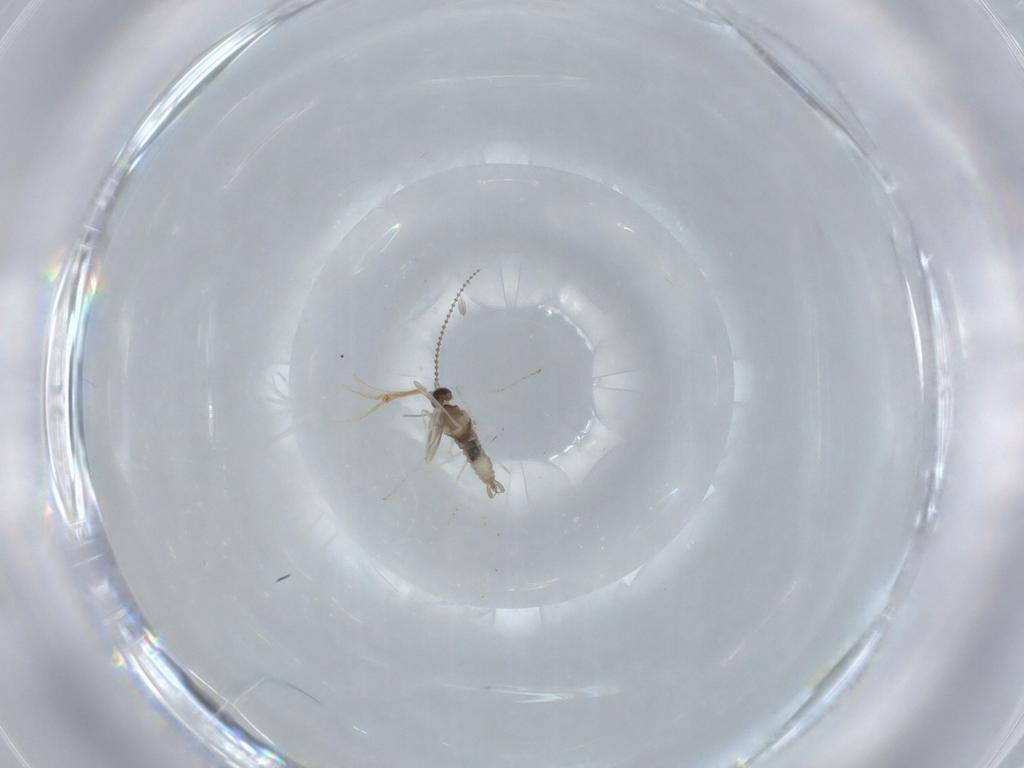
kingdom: Animalia
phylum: Arthropoda
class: Insecta
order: Diptera
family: Cecidomyiidae
